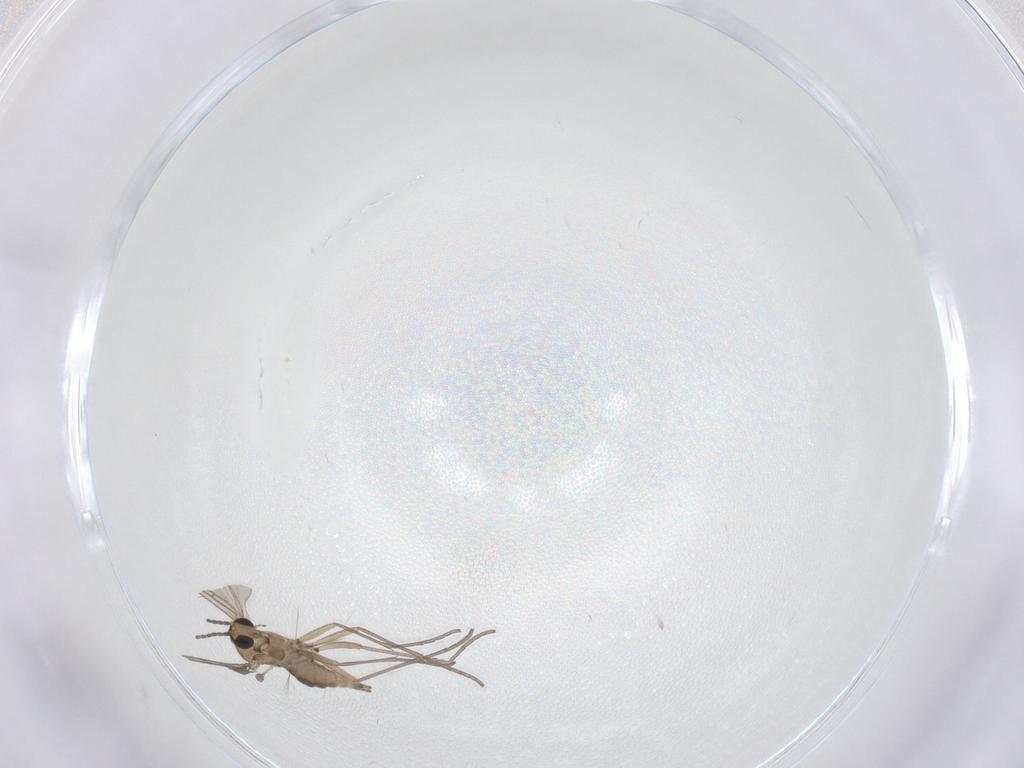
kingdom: Animalia
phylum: Arthropoda
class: Insecta
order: Diptera
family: Sciaridae
